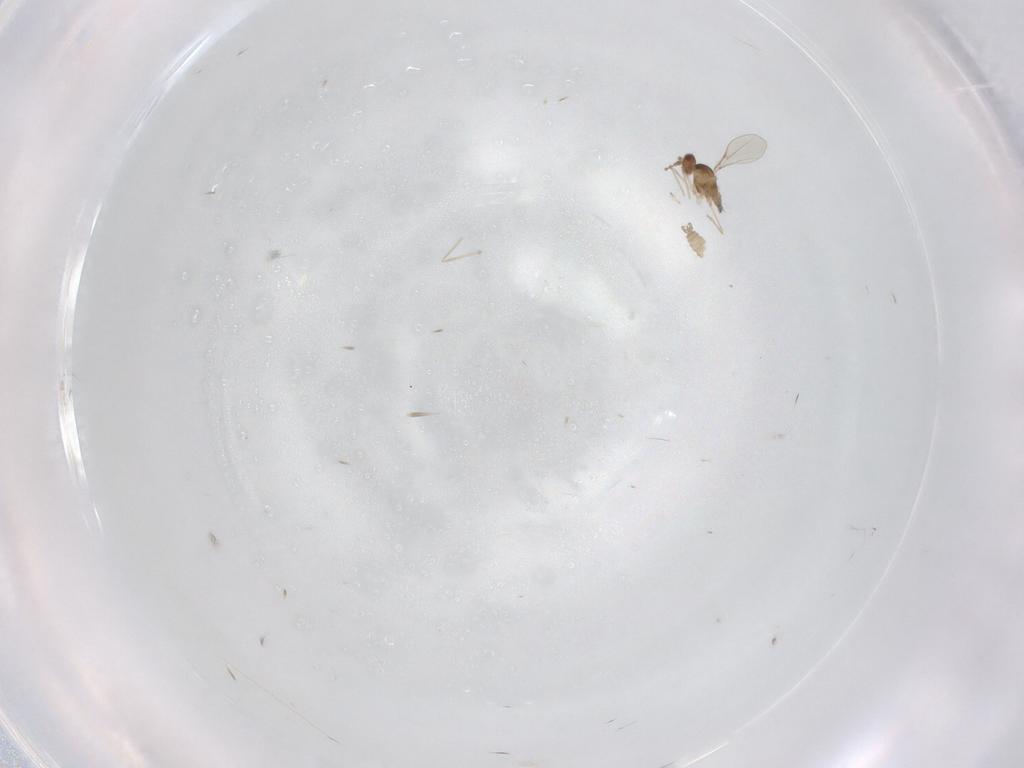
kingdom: Animalia
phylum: Arthropoda
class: Insecta
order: Diptera
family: Cecidomyiidae
